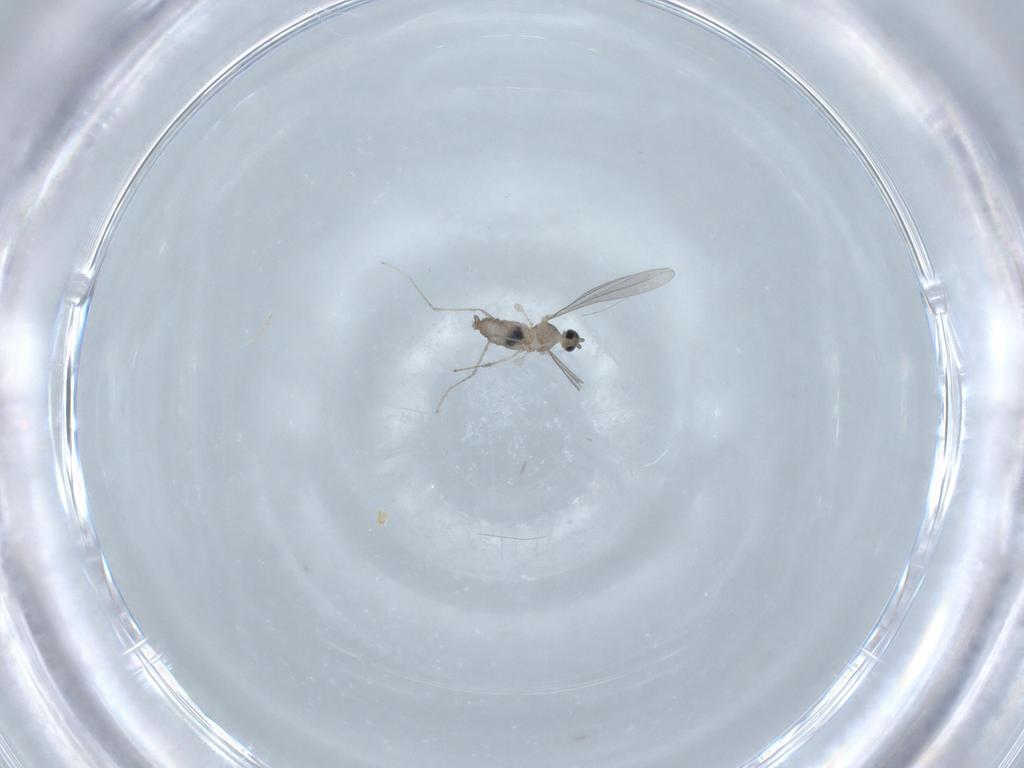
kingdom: Animalia
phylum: Arthropoda
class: Insecta
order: Diptera
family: Cecidomyiidae
